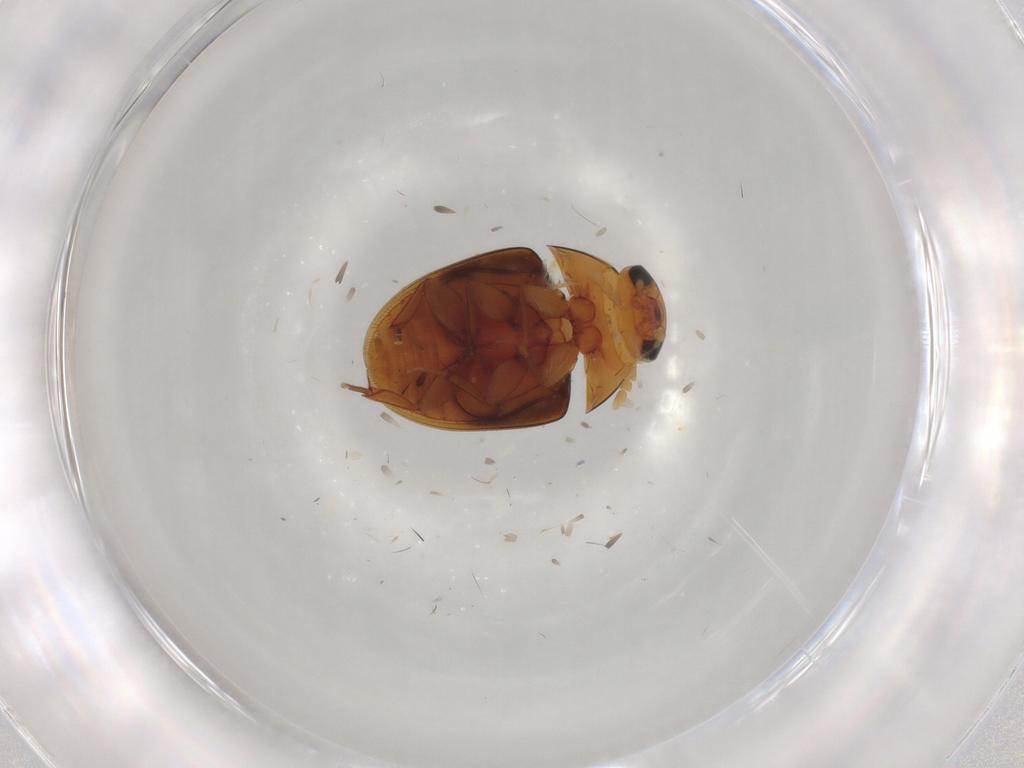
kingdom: Animalia
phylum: Arthropoda
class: Insecta
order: Coleoptera
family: Corylophidae
